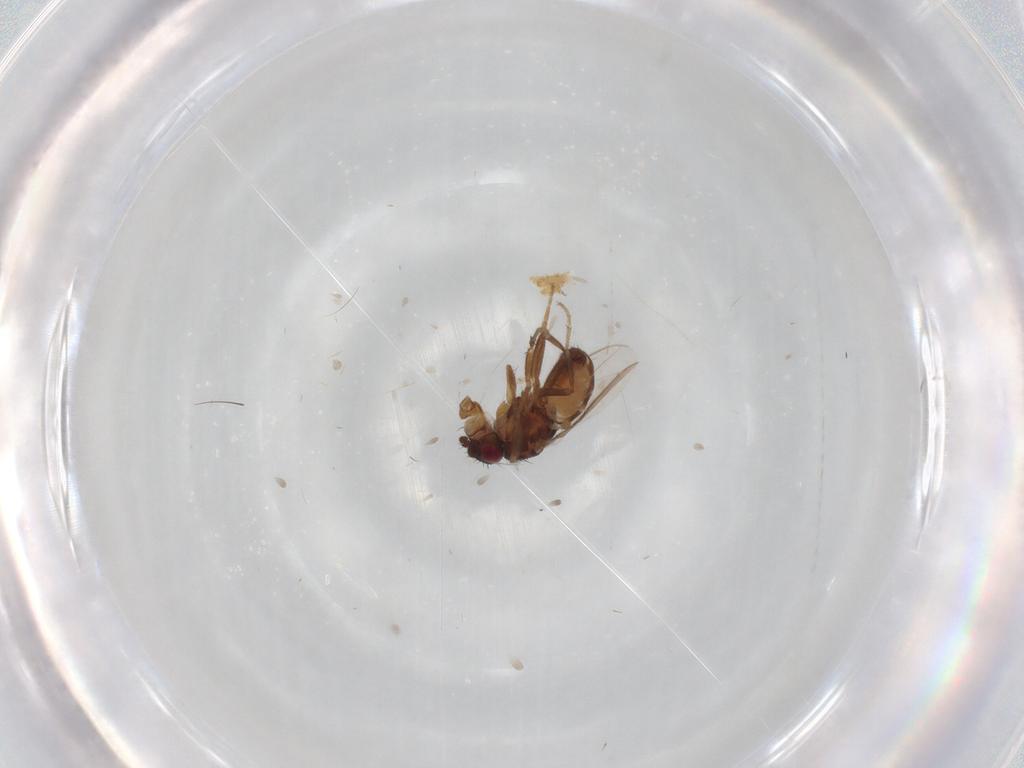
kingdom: Animalia
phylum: Arthropoda
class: Insecta
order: Diptera
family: Sphaeroceridae
